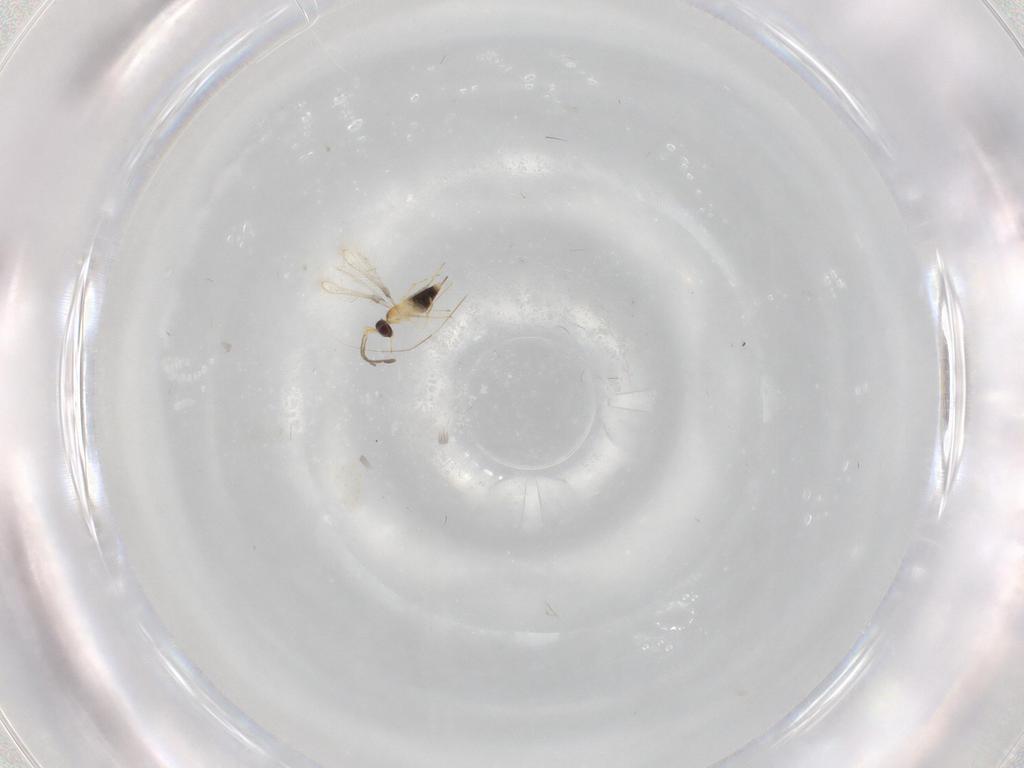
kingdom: Animalia
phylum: Arthropoda
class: Insecta
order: Hymenoptera
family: Mymaridae
